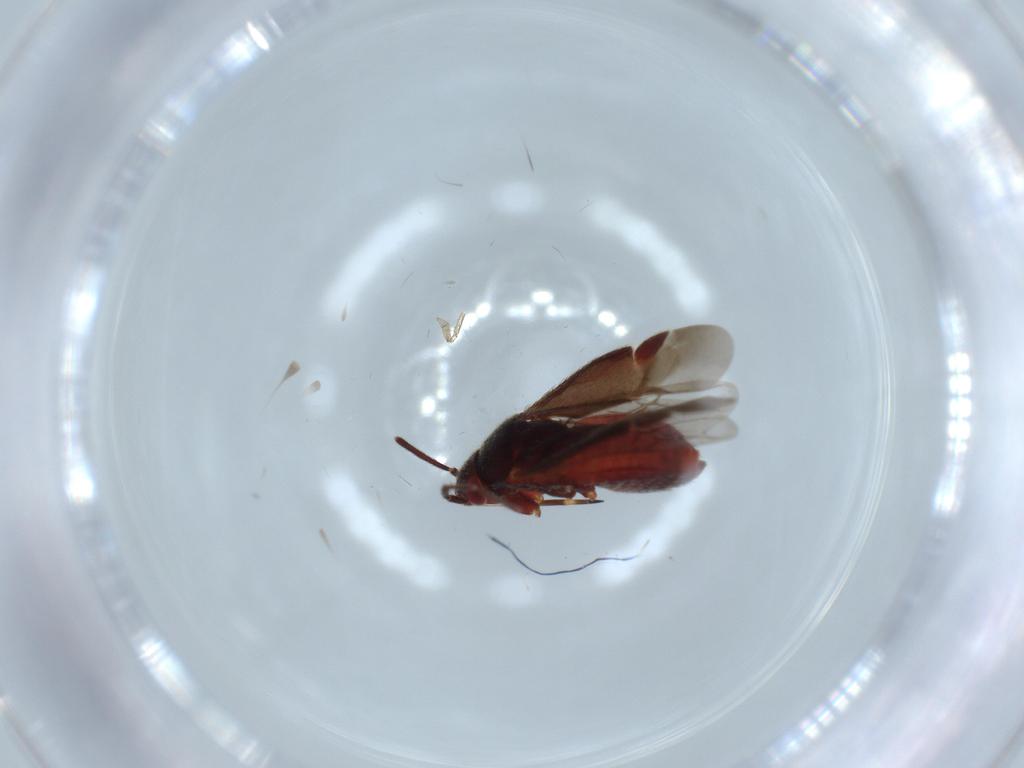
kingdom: Animalia
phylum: Arthropoda
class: Insecta
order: Hemiptera
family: Miridae
